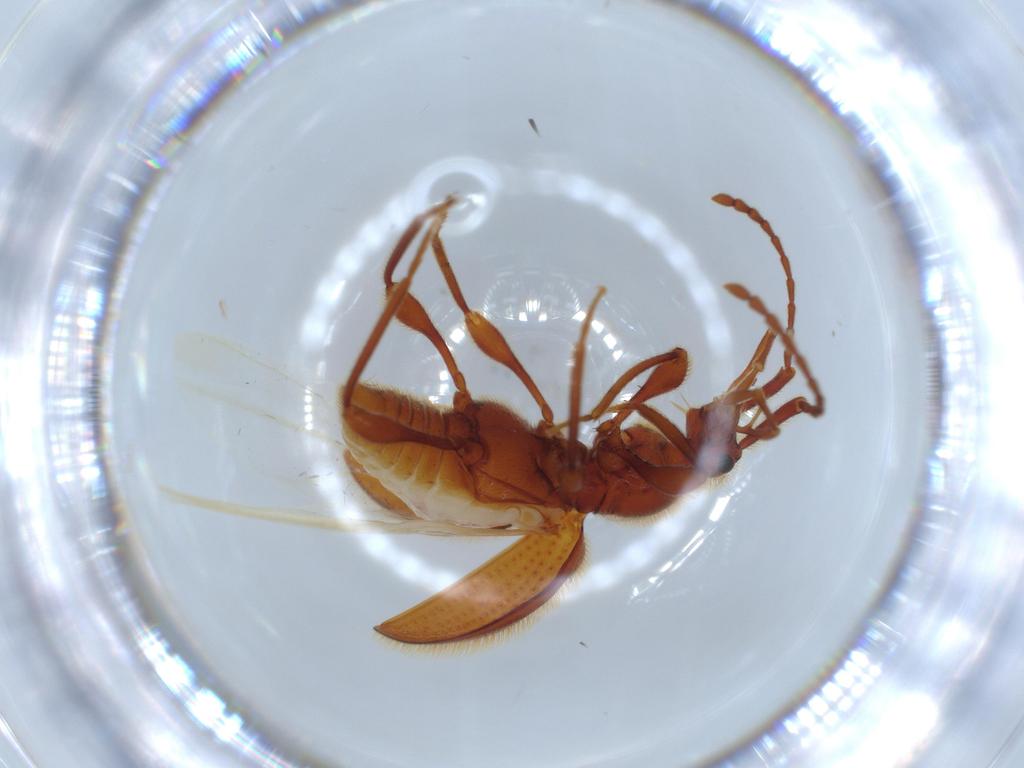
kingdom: Animalia
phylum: Arthropoda
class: Insecta
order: Coleoptera
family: Staphylinidae
